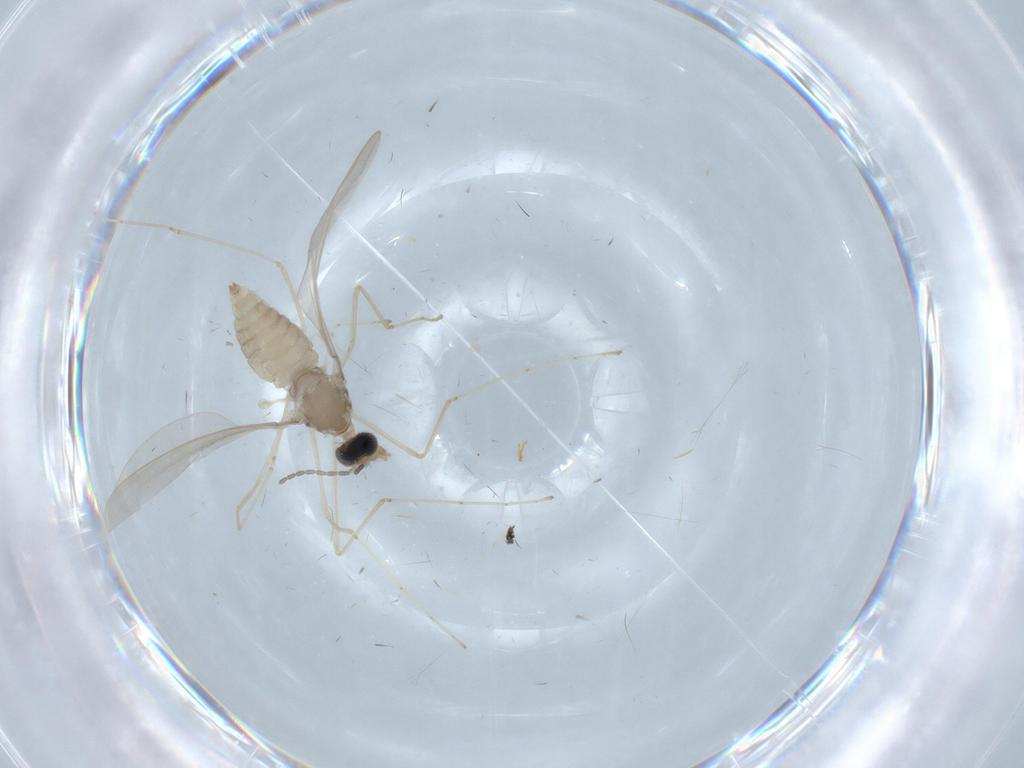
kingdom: Animalia
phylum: Arthropoda
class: Insecta
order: Diptera
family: Cecidomyiidae
